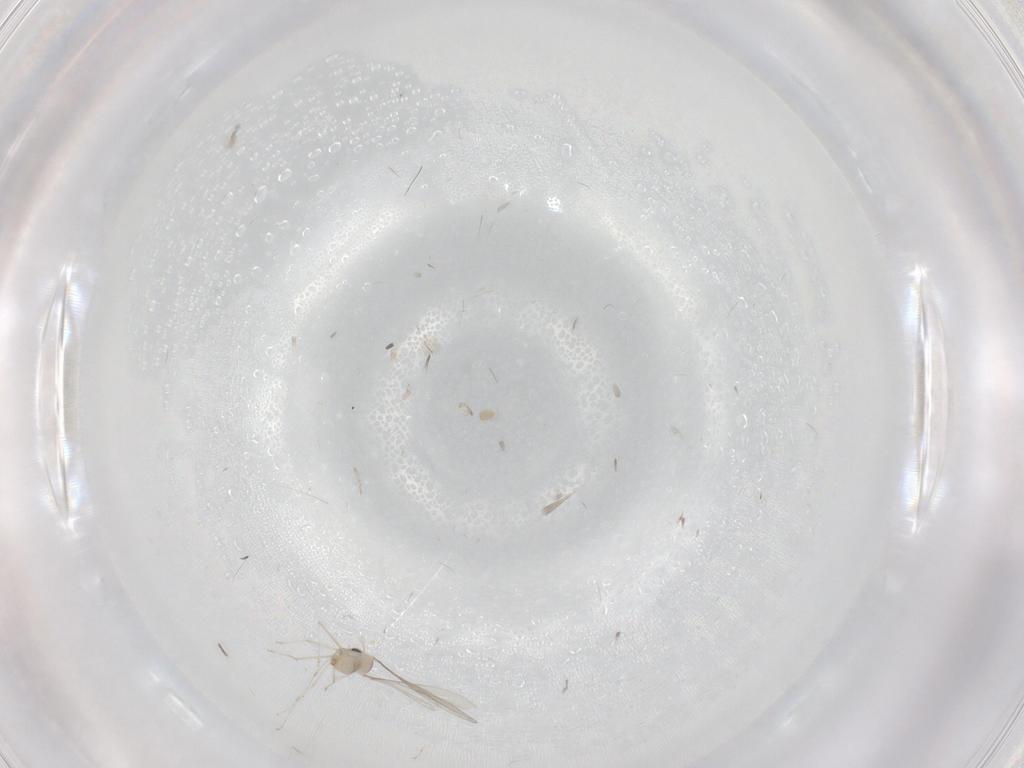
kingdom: Animalia
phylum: Arthropoda
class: Insecta
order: Diptera
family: Cecidomyiidae
